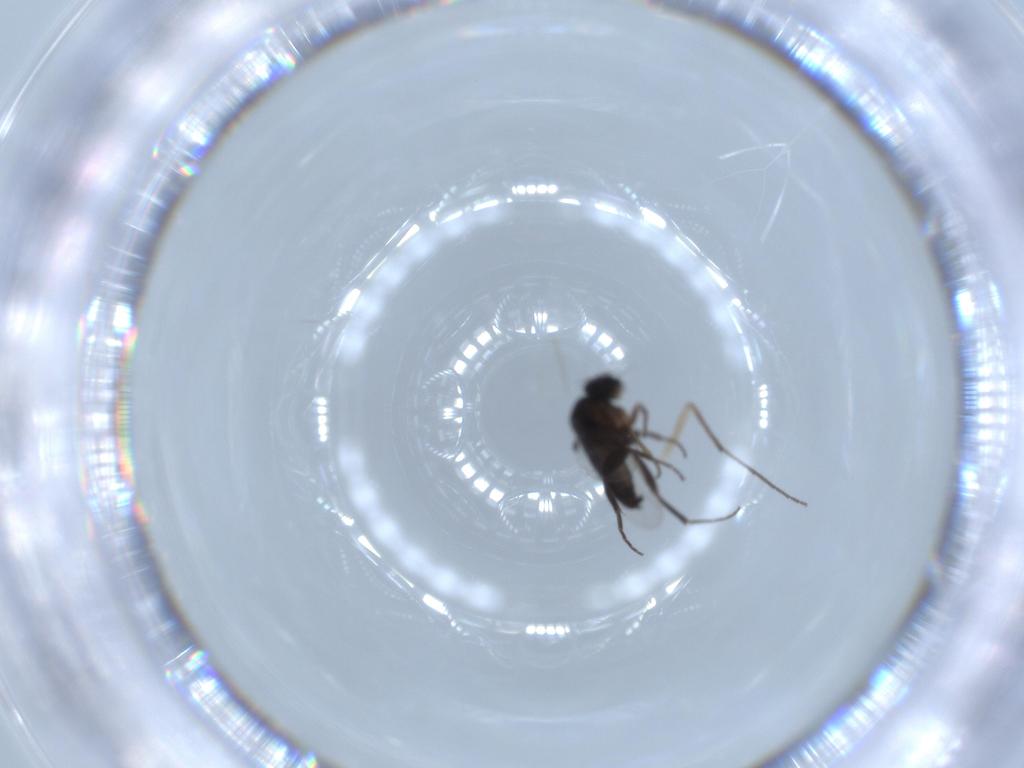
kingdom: Animalia
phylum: Arthropoda
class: Insecta
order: Diptera
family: Phoridae
